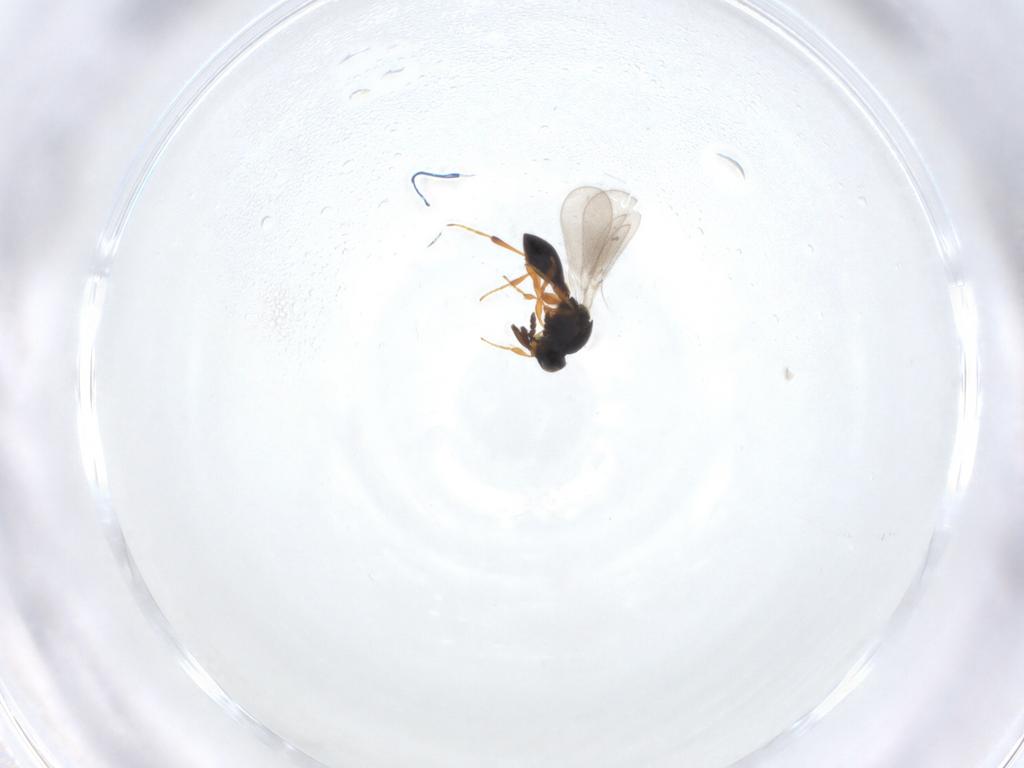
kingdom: Animalia
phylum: Arthropoda
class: Insecta
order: Hymenoptera
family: Platygastridae
